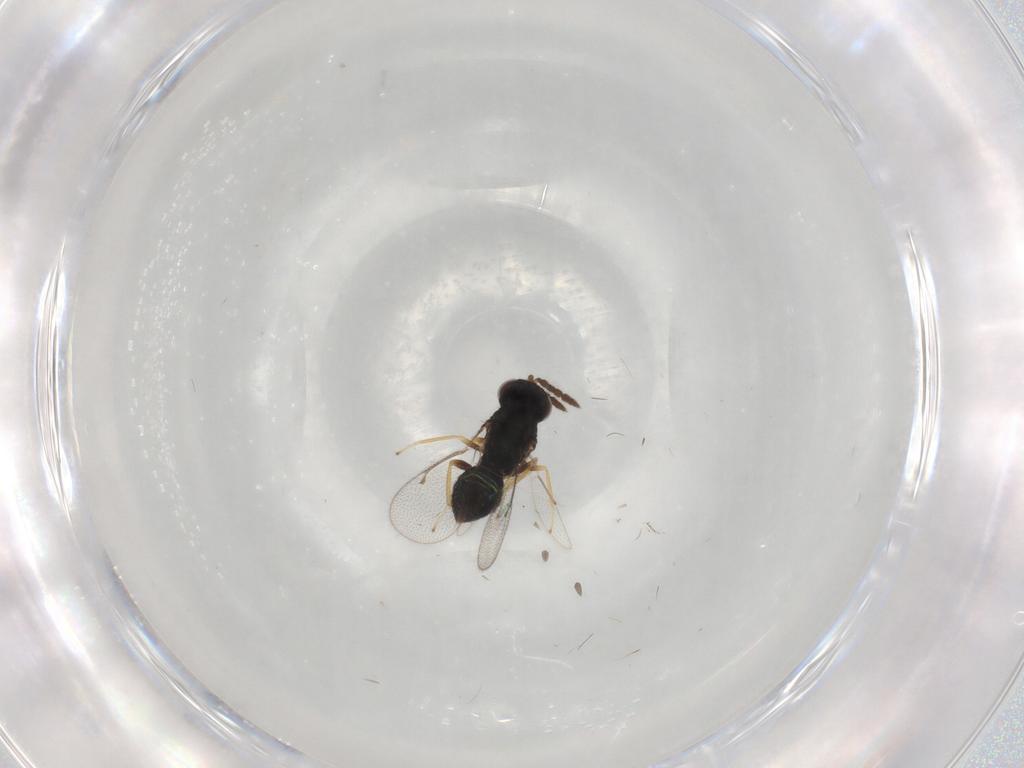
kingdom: Animalia
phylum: Arthropoda
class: Insecta
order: Hymenoptera
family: Eulophidae
